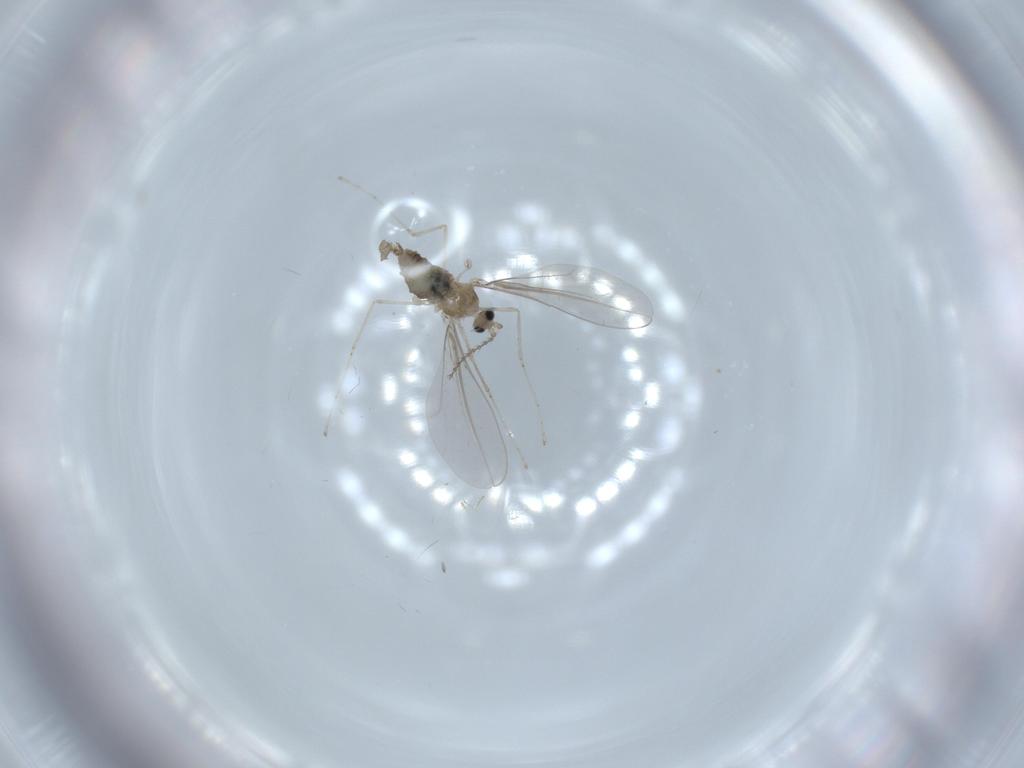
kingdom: Animalia
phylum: Arthropoda
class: Insecta
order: Diptera
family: Cecidomyiidae
